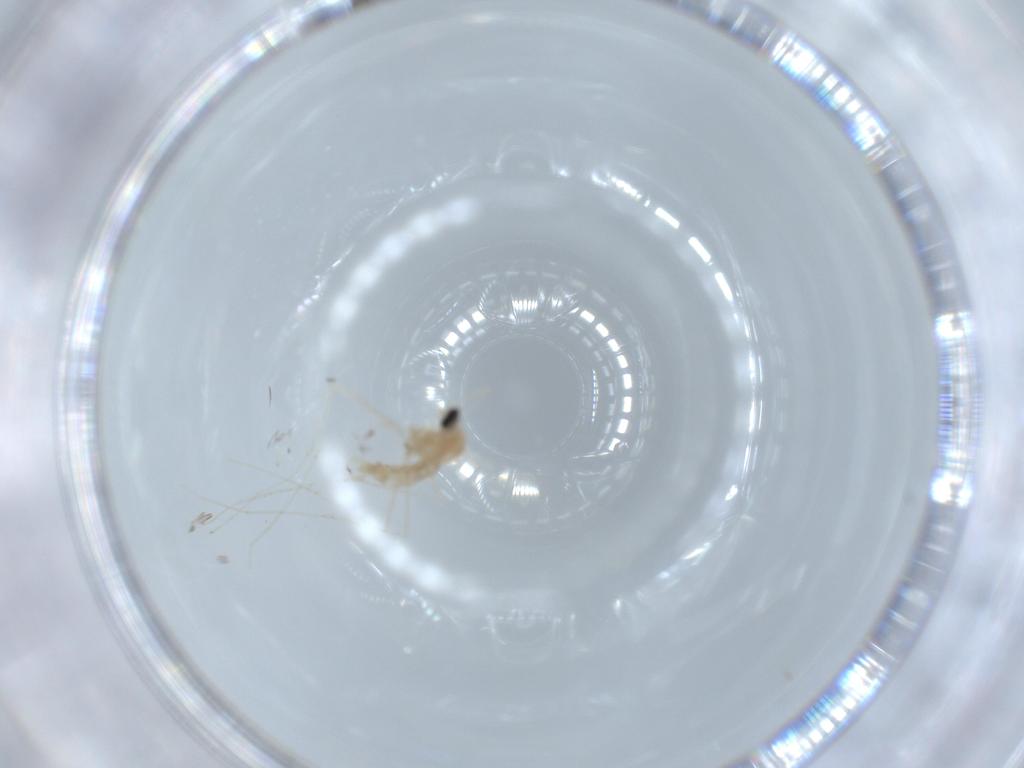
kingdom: Animalia
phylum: Arthropoda
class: Insecta
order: Diptera
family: Cecidomyiidae
